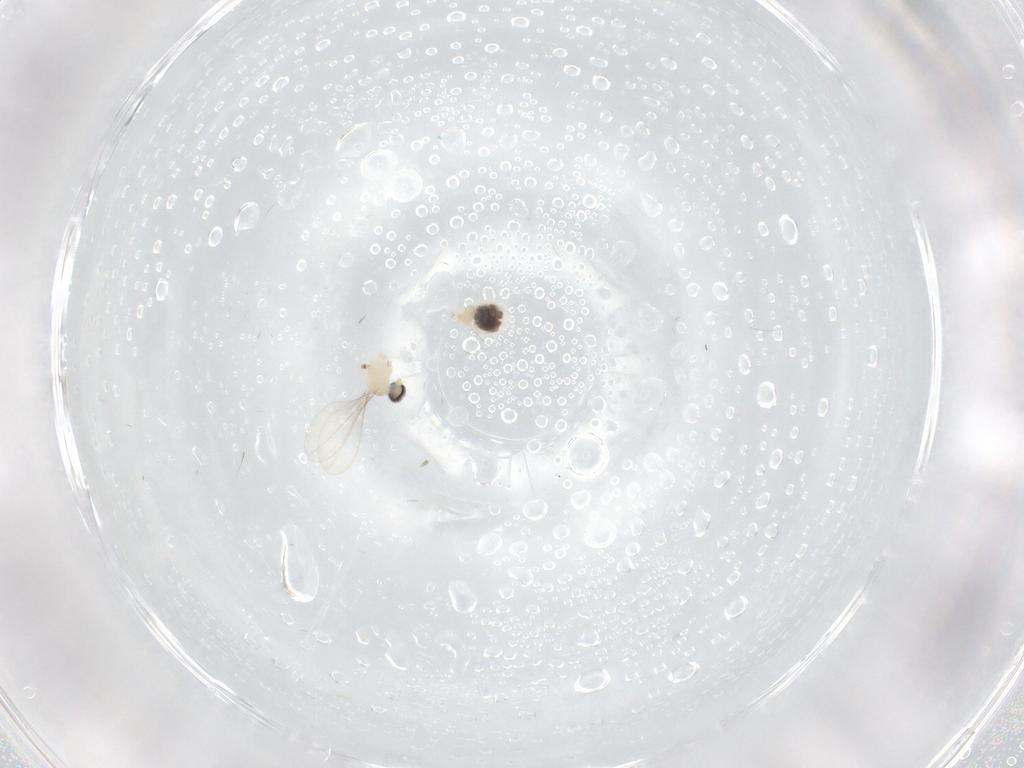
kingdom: Animalia
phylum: Arthropoda
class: Insecta
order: Diptera
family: Cecidomyiidae
